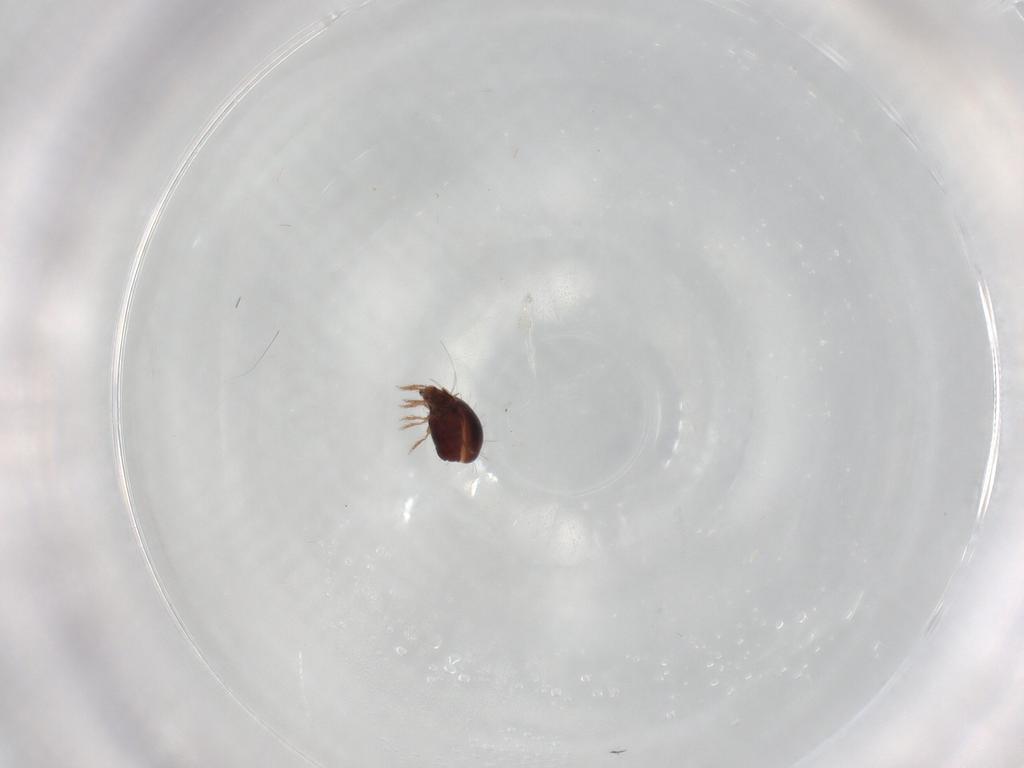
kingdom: Animalia
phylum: Arthropoda
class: Arachnida
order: Sarcoptiformes
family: Humerobatidae
